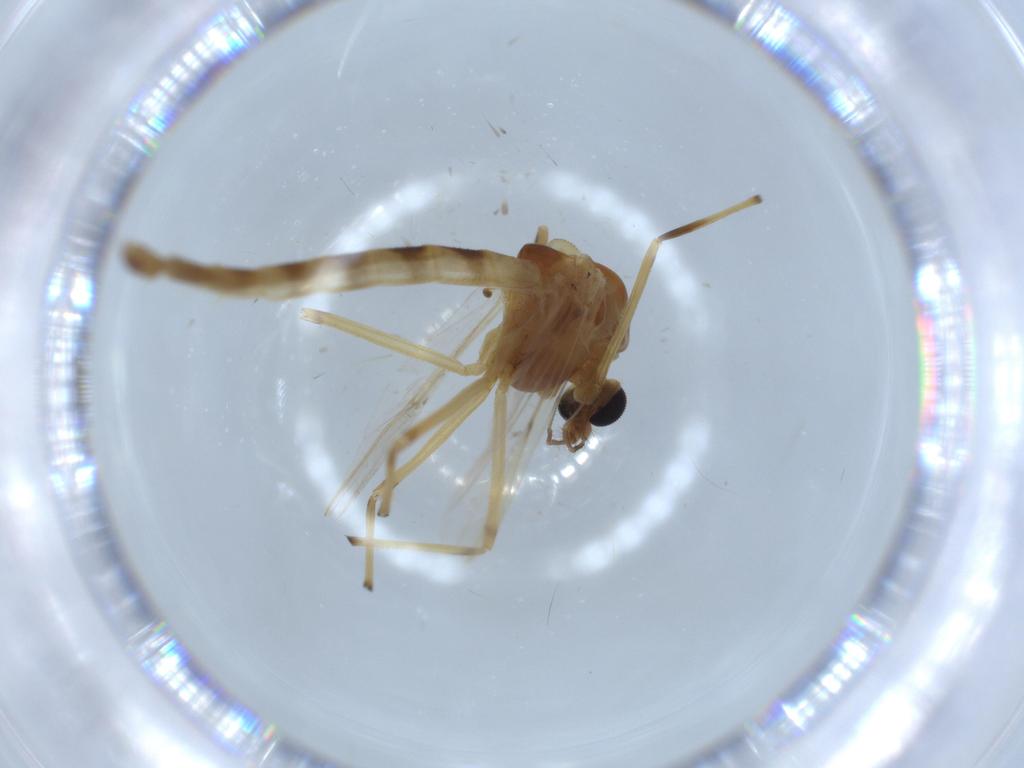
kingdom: Animalia
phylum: Arthropoda
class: Insecta
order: Diptera
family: Chironomidae
